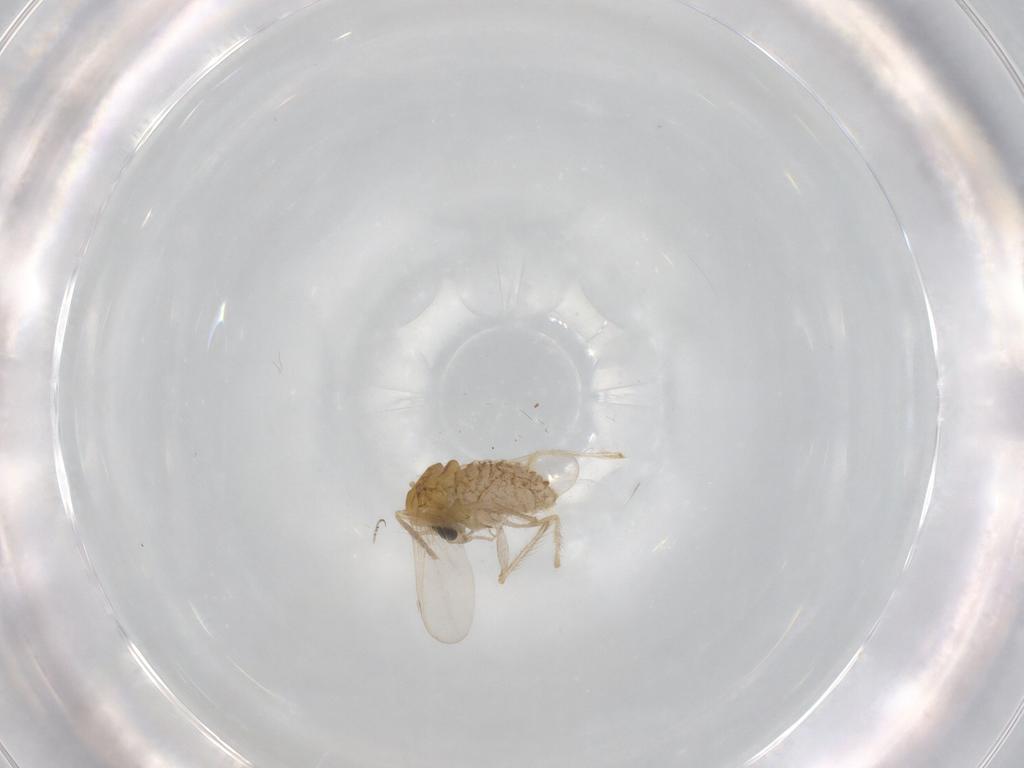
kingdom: Animalia
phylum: Arthropoda
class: Insecta
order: Diptera
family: Chironomidae
